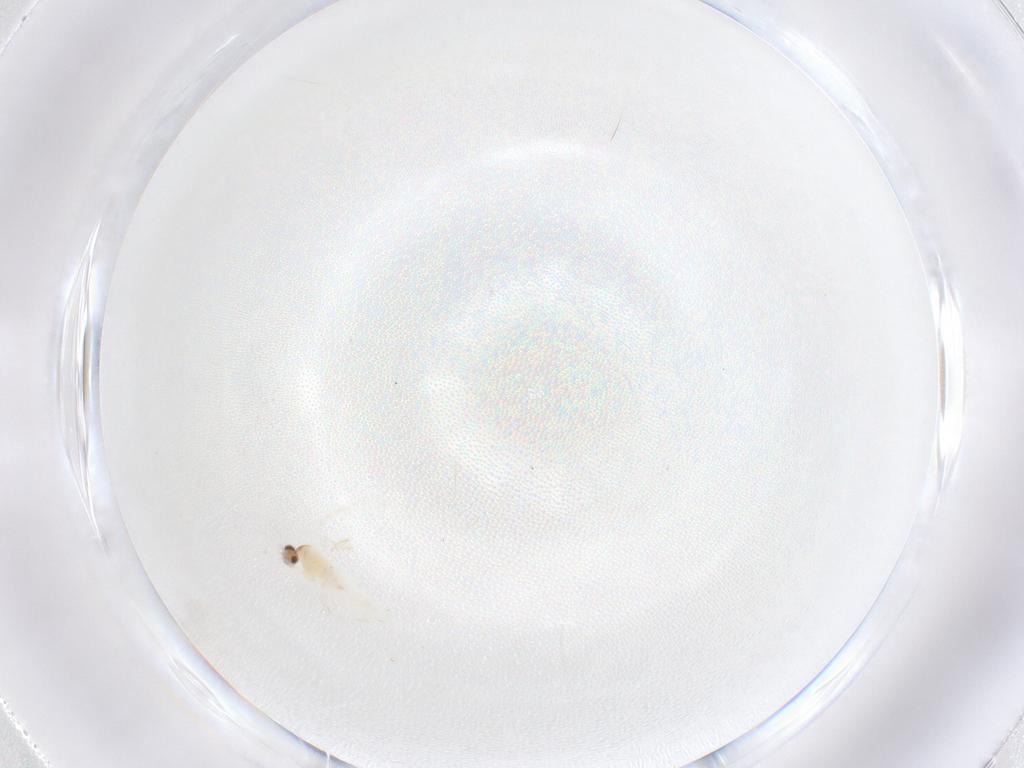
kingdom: Animalia
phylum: Arthropoda
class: Insecta
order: Diptera
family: Cecidomyiidae
